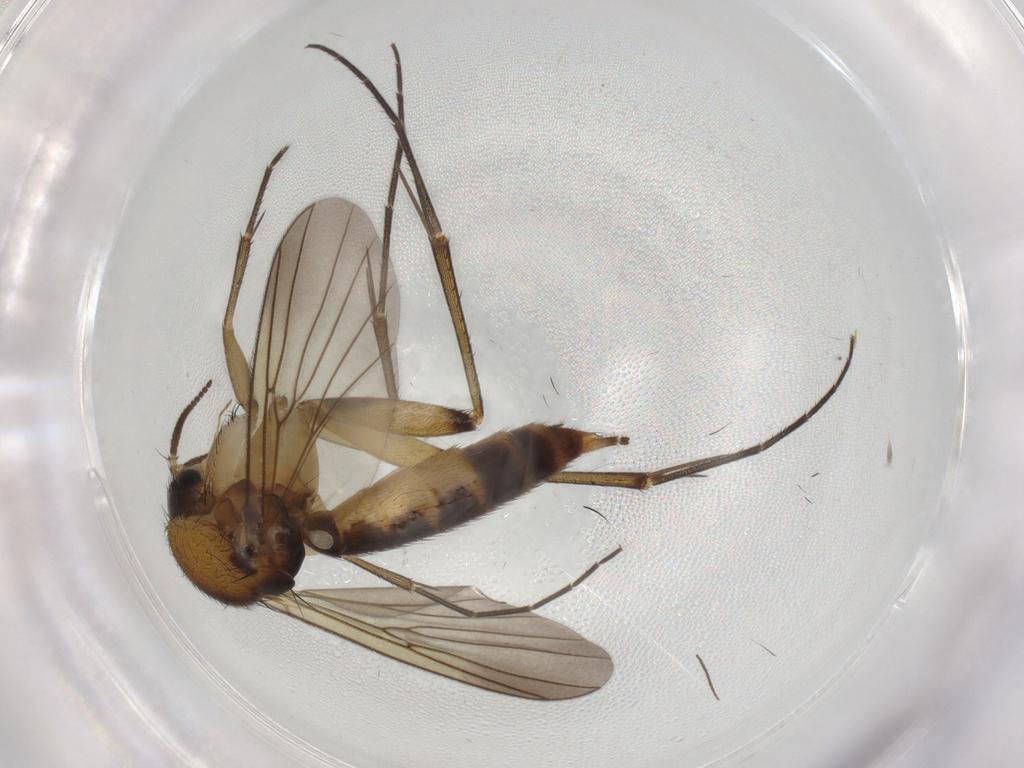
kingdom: Animalia
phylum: Arthropoda
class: Insecta
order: Diptera
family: Mycetophilidae
